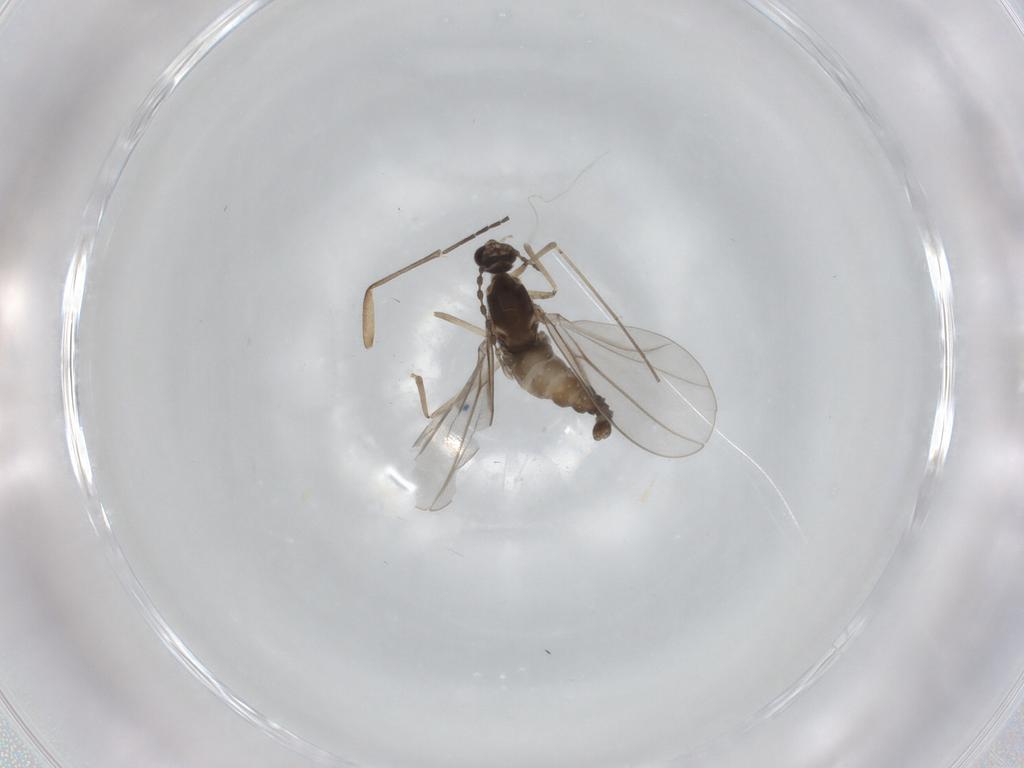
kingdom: Animalia
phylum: Arthropoda
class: Insecta
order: Diptera
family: Cecidomyiidae
